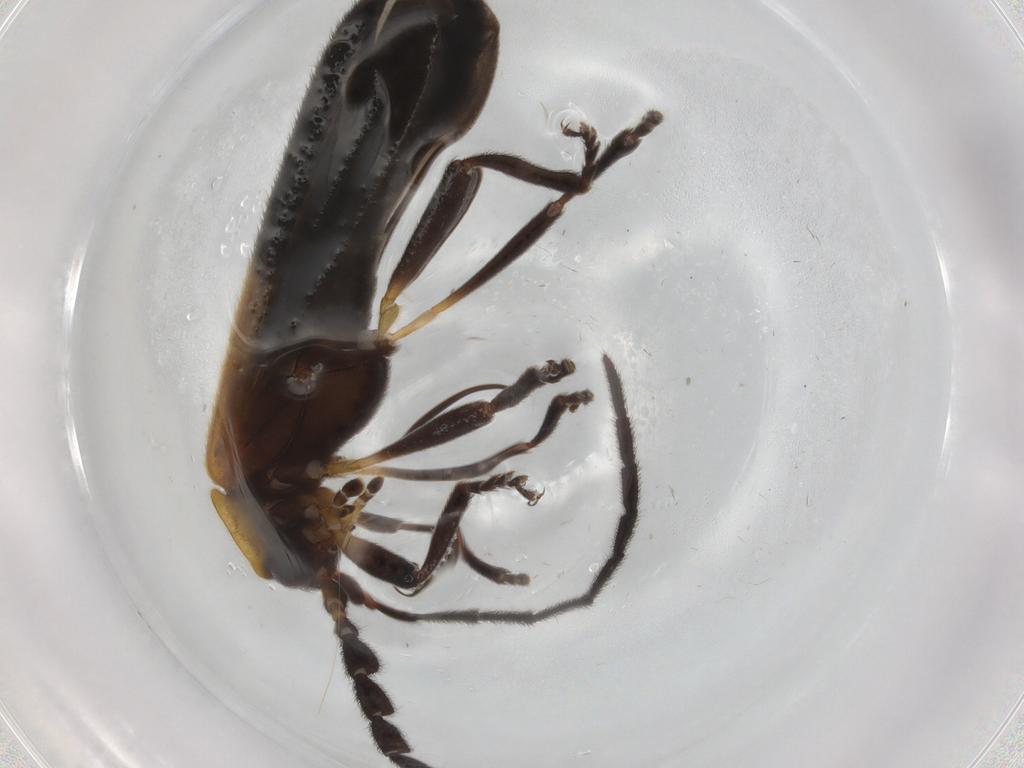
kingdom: Animalia
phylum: Arthropoda
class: Insecta
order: Coleoptera
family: Lycidae
